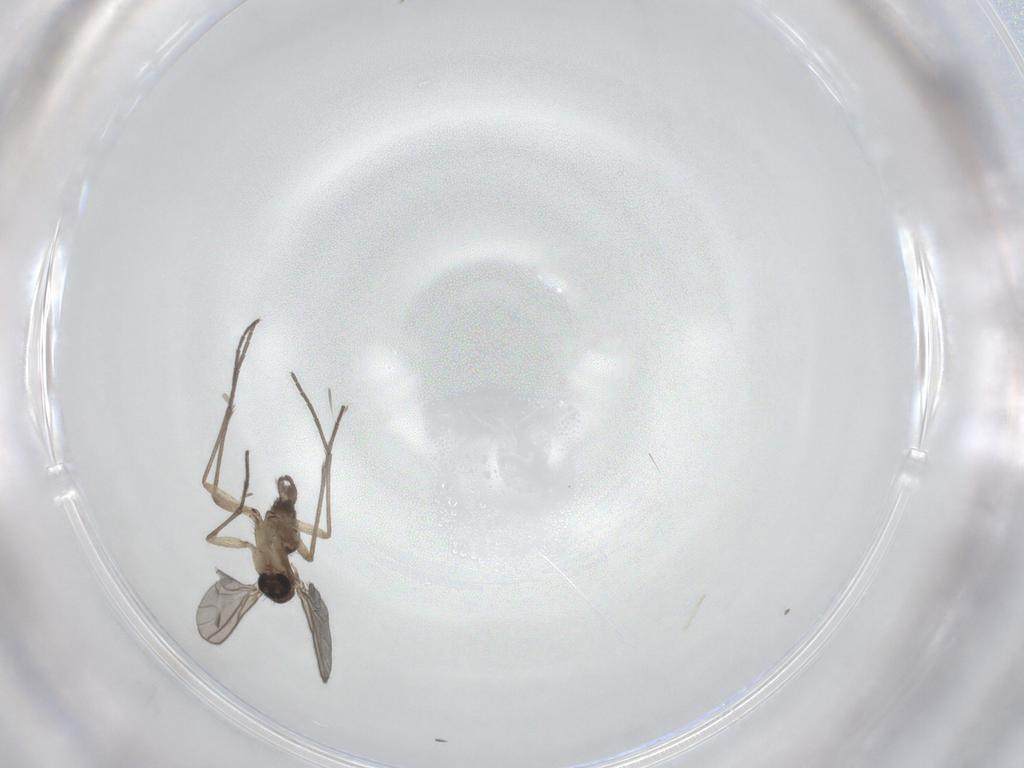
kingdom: Animalia
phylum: Arthropoda
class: Insecta
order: Diptera
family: Sciaridae
